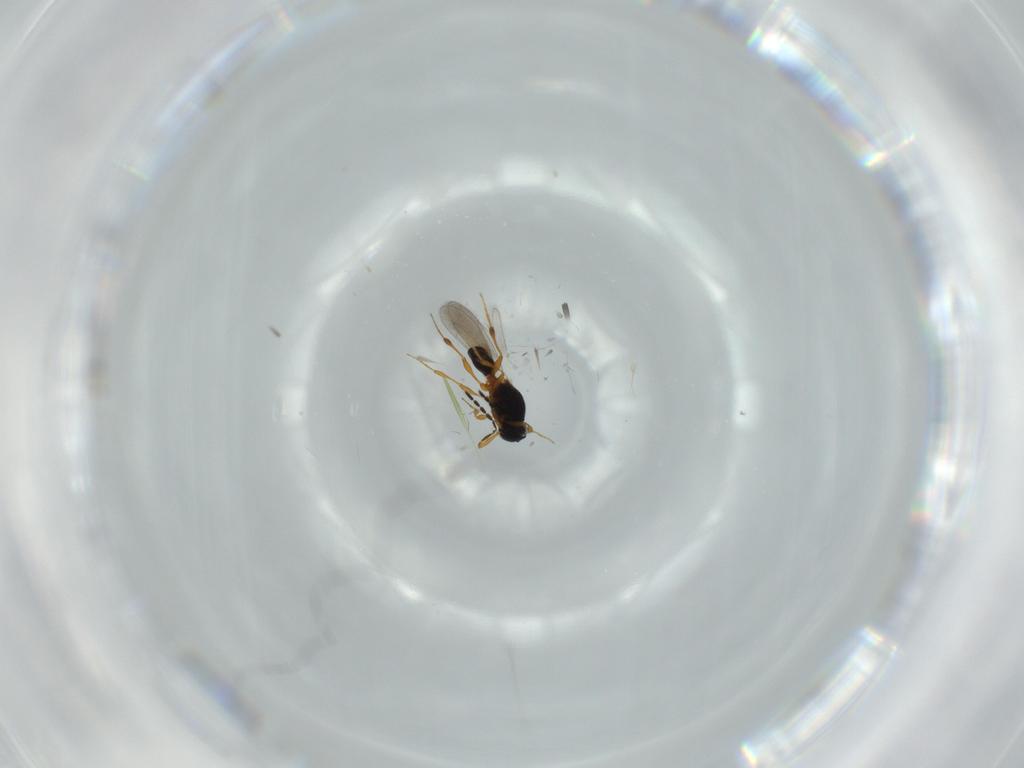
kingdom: Animalia
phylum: Arthropoda
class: Insecta
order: Hymenoptera
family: Platygastridae
